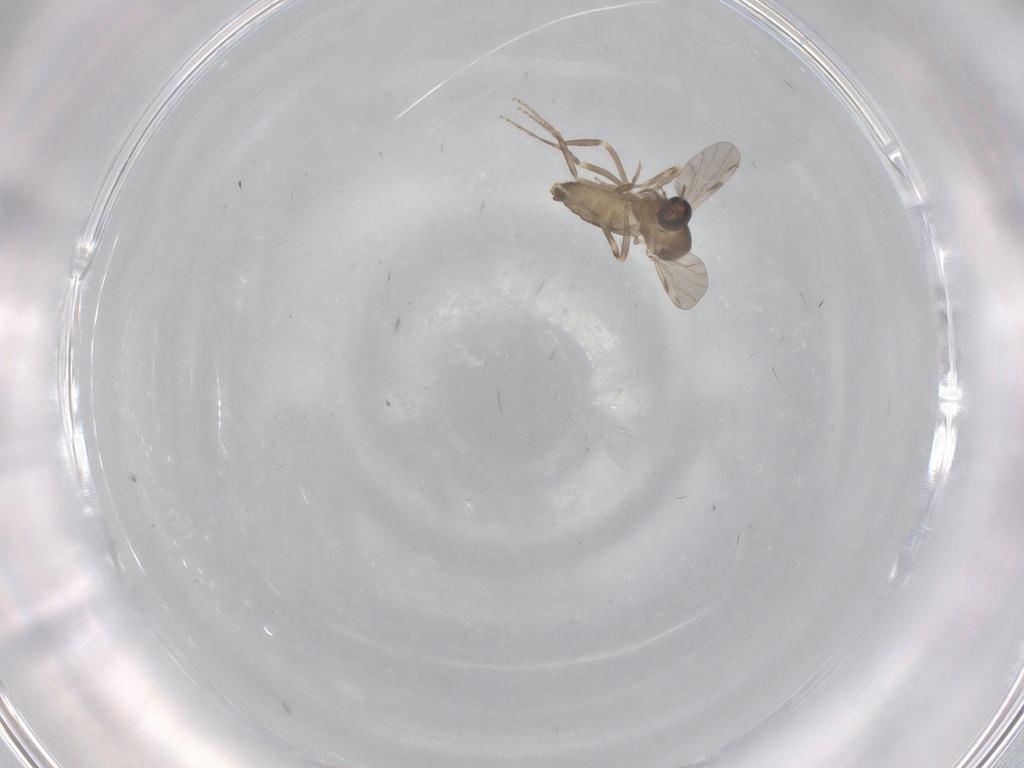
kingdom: Animalia
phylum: Arthropoda
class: Insecta
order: Diptera
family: Ceratopogonidae
